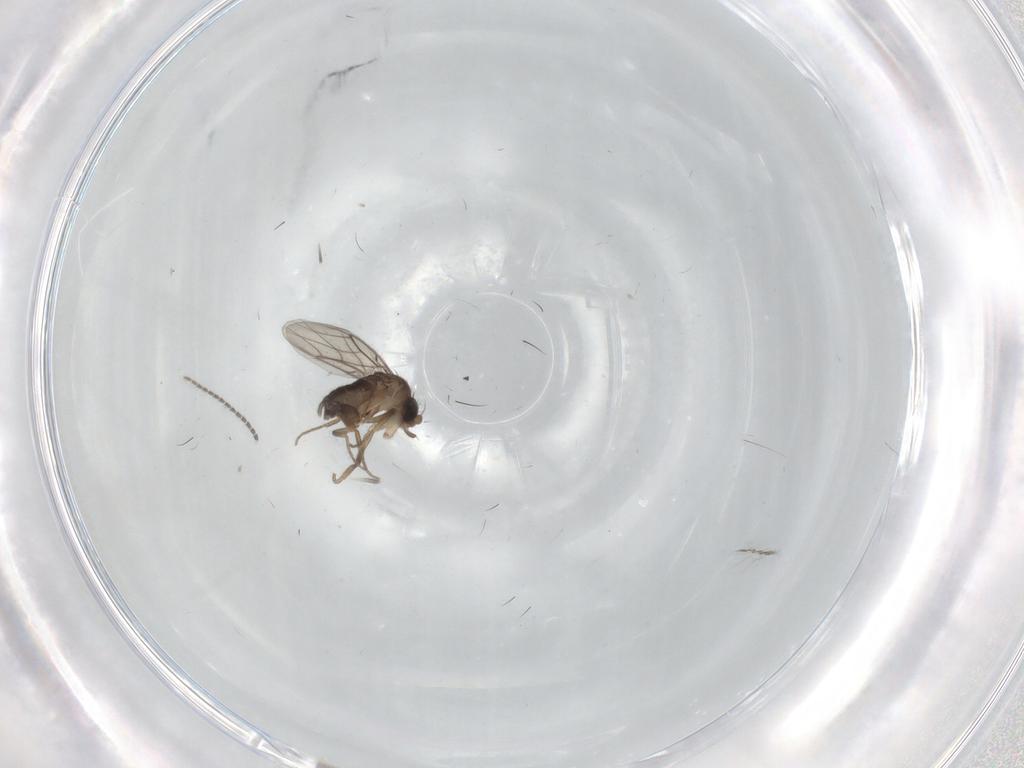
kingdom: Animalia
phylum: Arthropoda
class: Insecta
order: Diptera
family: Sciaridae
